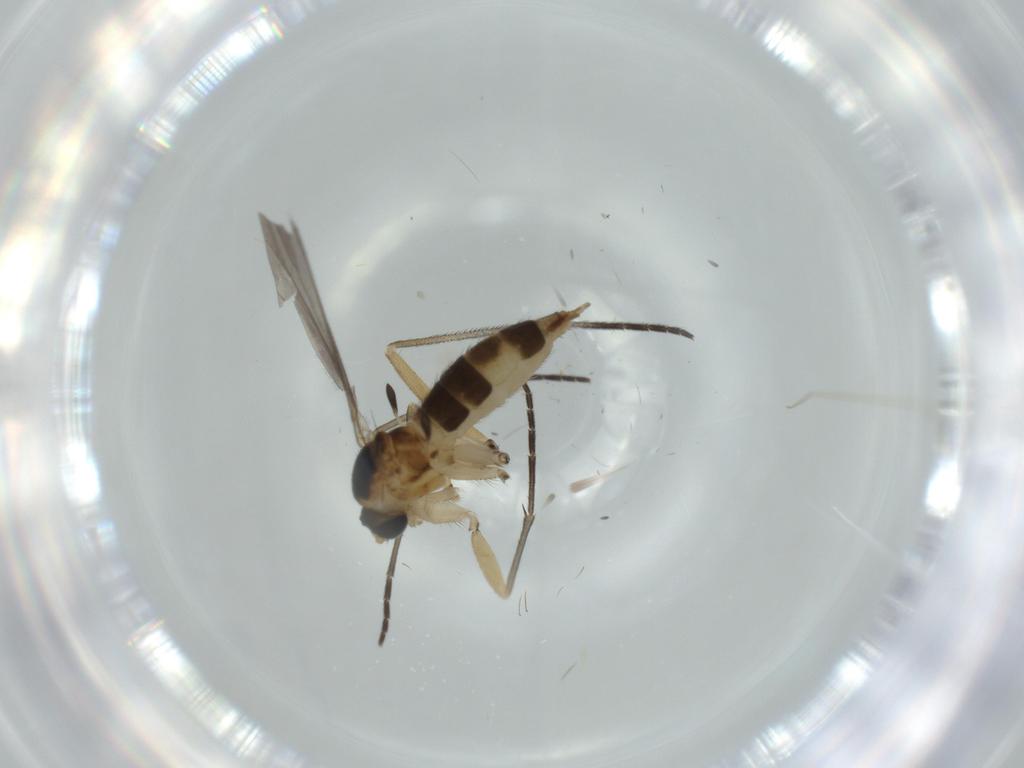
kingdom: Animalia
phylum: Arthropoda
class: Insecta
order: Diptera
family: Sciaridae
